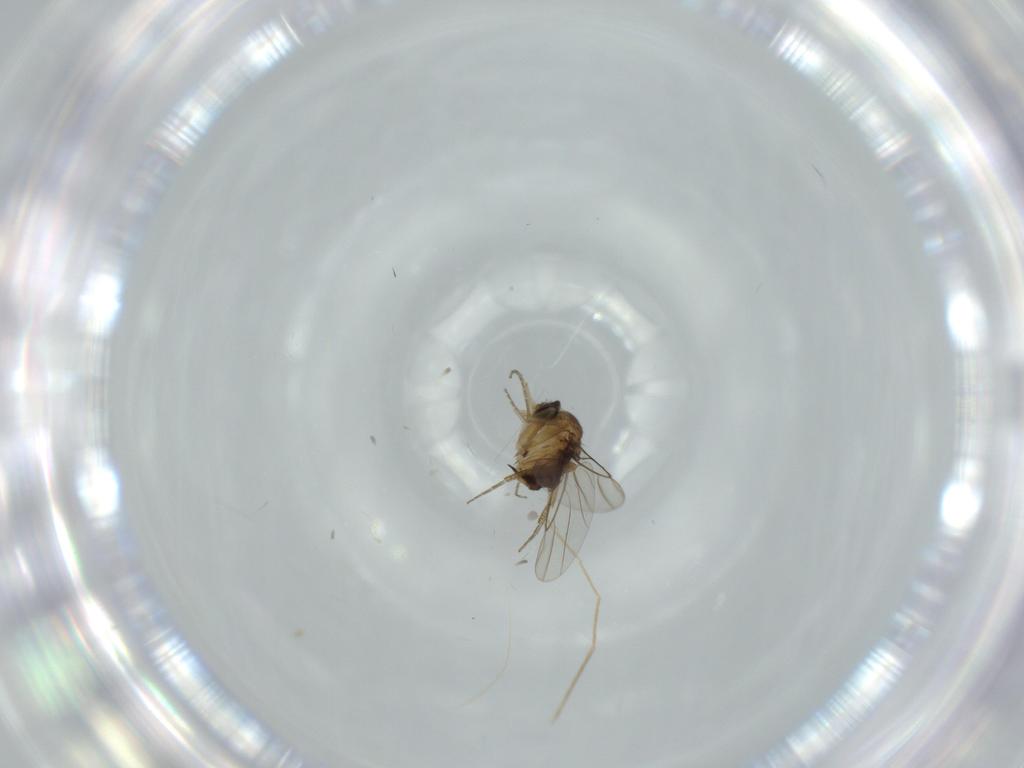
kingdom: Animalia
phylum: Arthropoda
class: Insecta
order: Diptera
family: Phoridae
